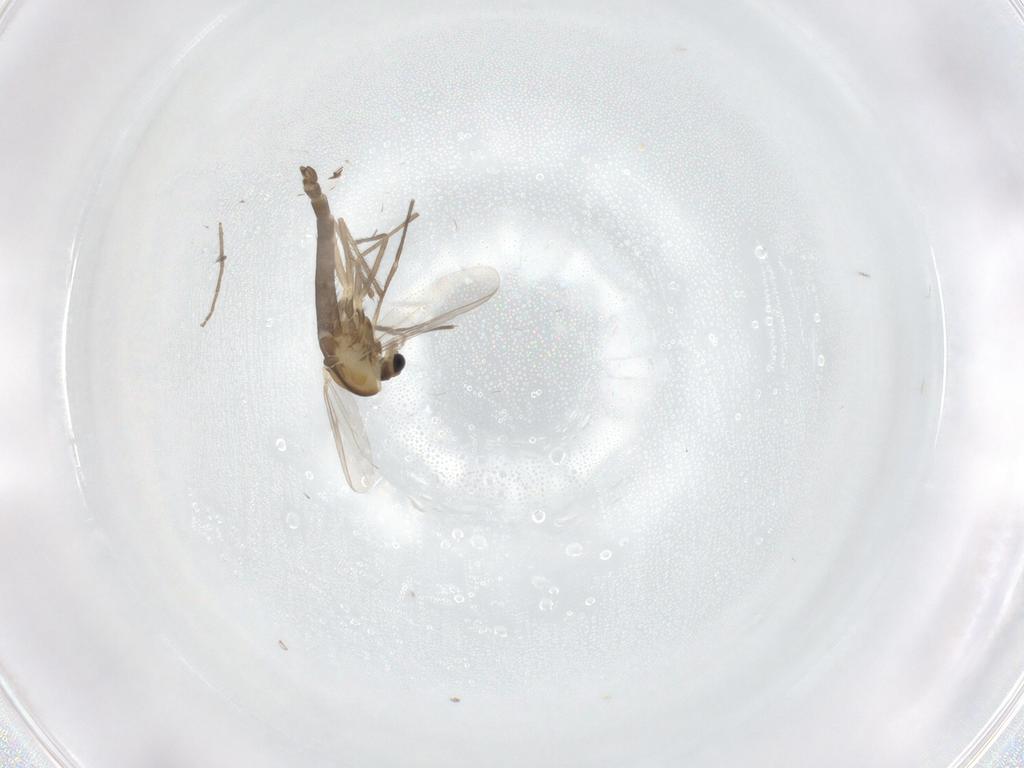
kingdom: Animalia
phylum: Arthropoda
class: Insecta
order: Diptera
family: Chironomidae
